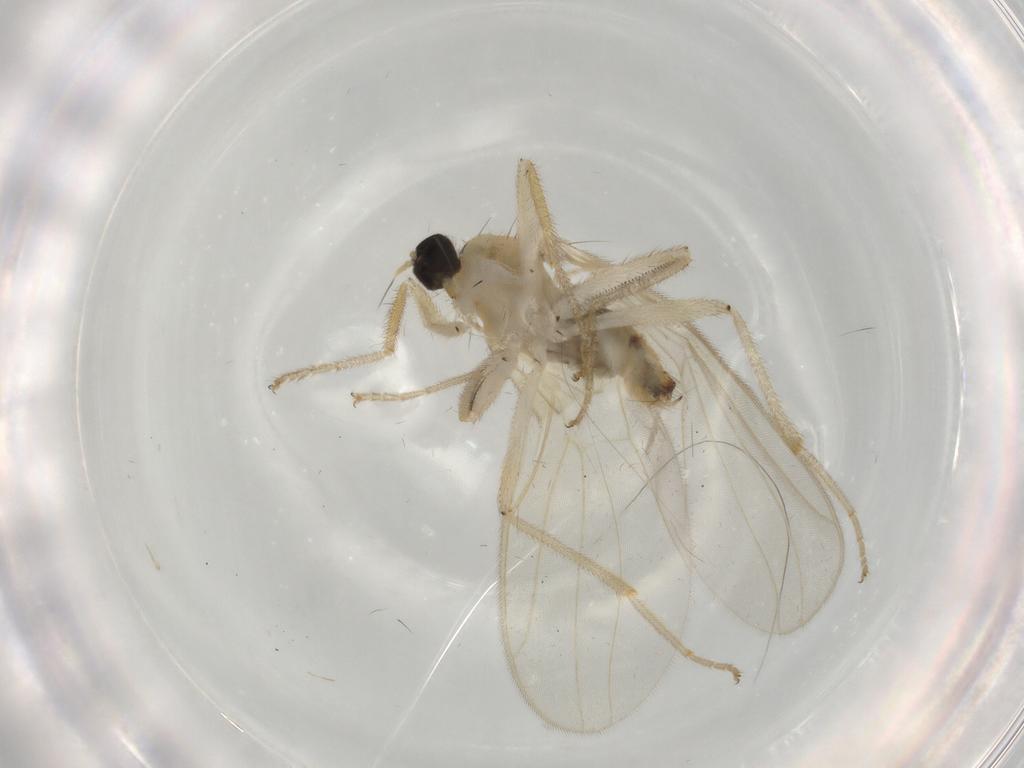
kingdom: Animalia
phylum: Arthropoda
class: Insecta
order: Diptera
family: Hybotidae
